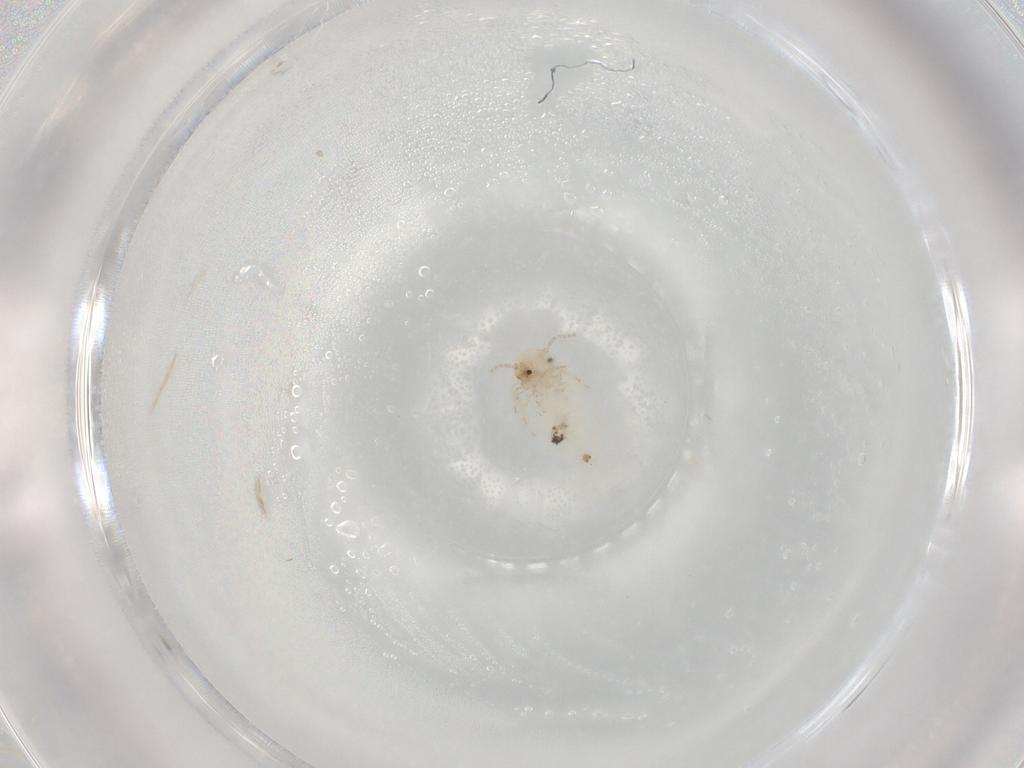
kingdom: Animalia
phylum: Arthropoda
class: Insecta
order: Psocodea
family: Peripsocidae
